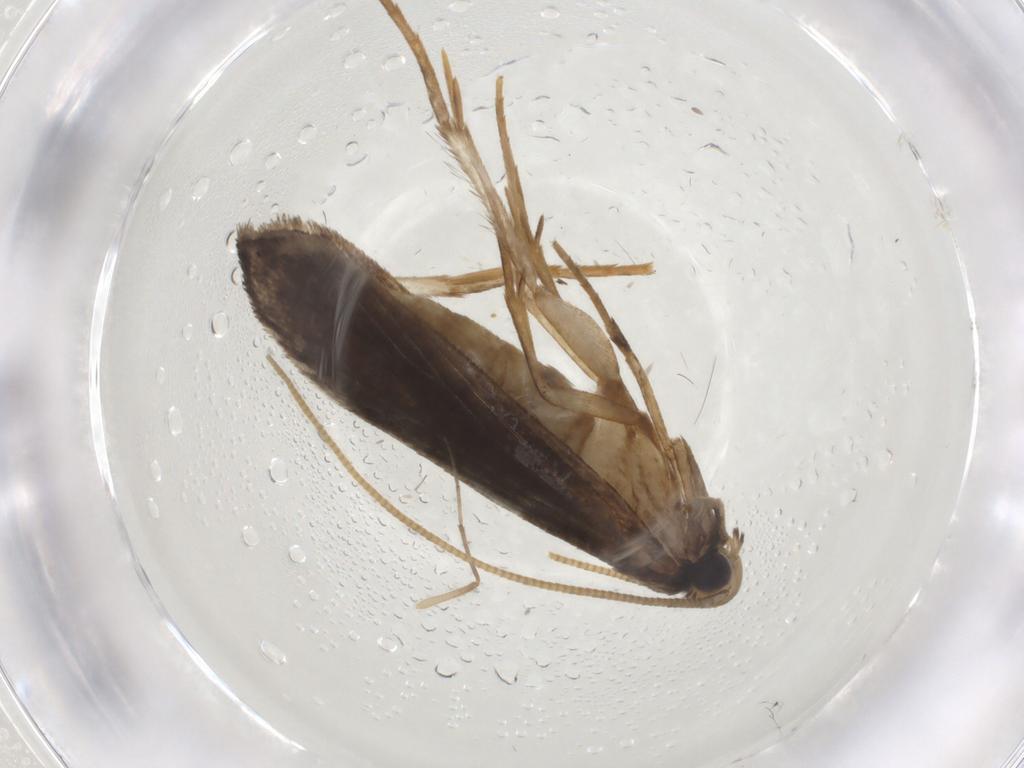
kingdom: Animalia
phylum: Arthropoda
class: Insecta
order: Lepidoptera
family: Tineidae
